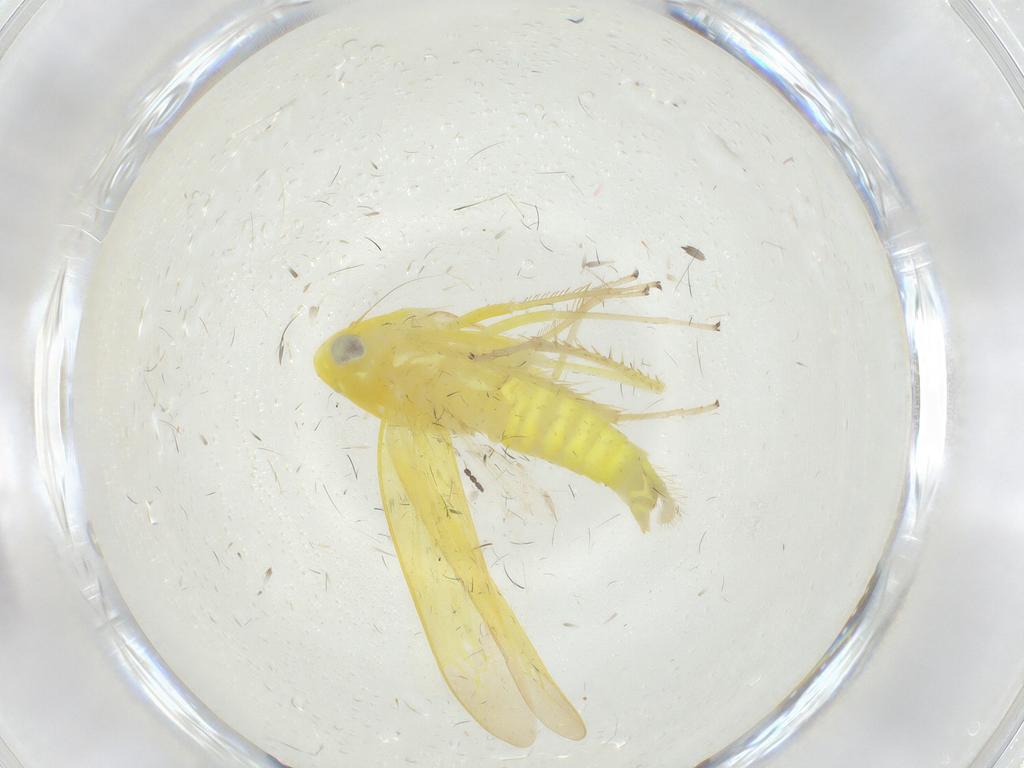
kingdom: Animalia
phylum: Arthropoda
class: Insecta
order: Hemiptera
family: Cicadellidae
